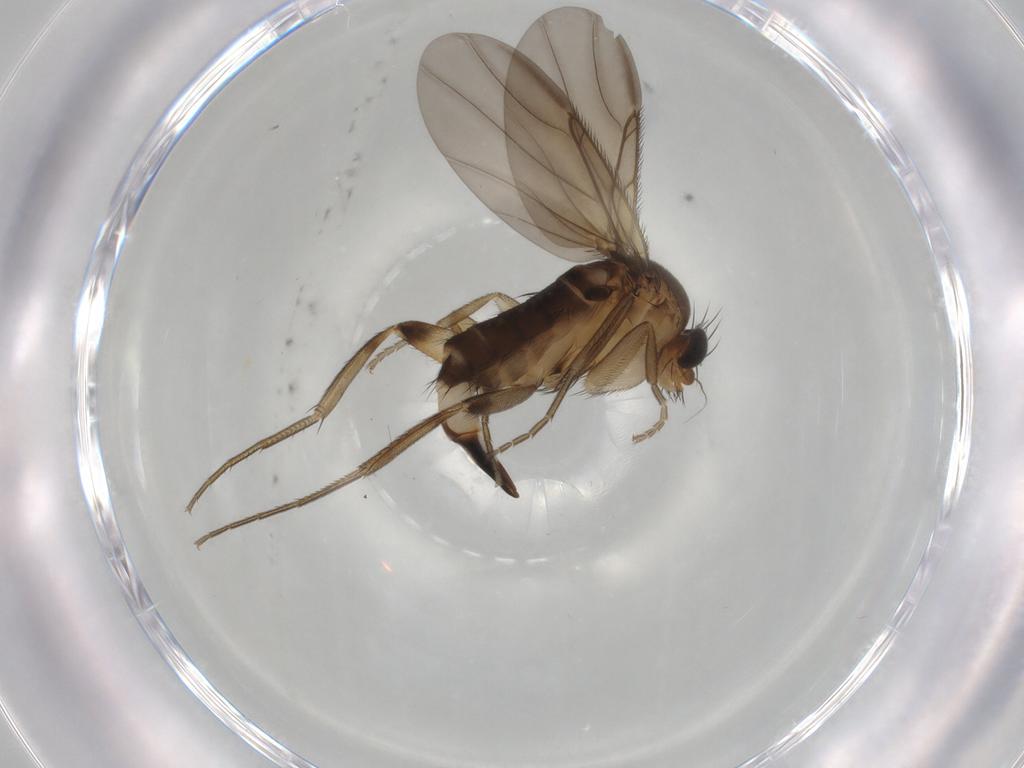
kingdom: Animalia
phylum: Arthropoda
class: Insecta
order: Diptera
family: Phoridae
